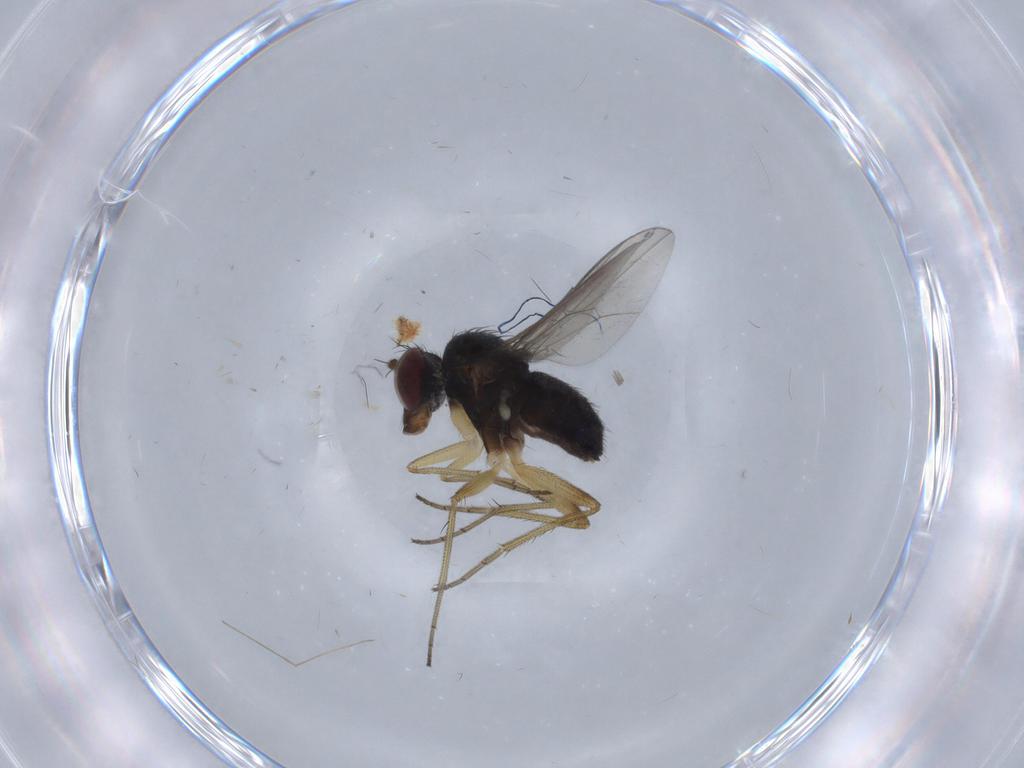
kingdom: Animalia
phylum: Arthropoda
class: Insecta
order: Diptera
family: Dolichopodidae
